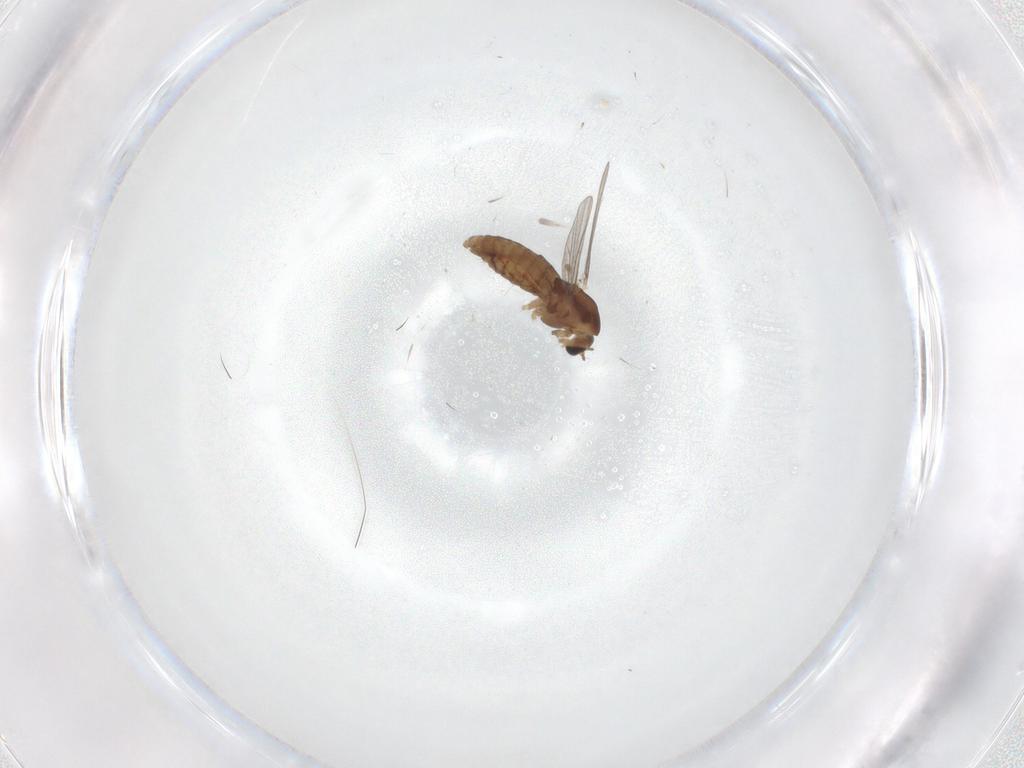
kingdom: Animalia
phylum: Arthropoda
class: Insecta
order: Diptera
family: Chironomidae
